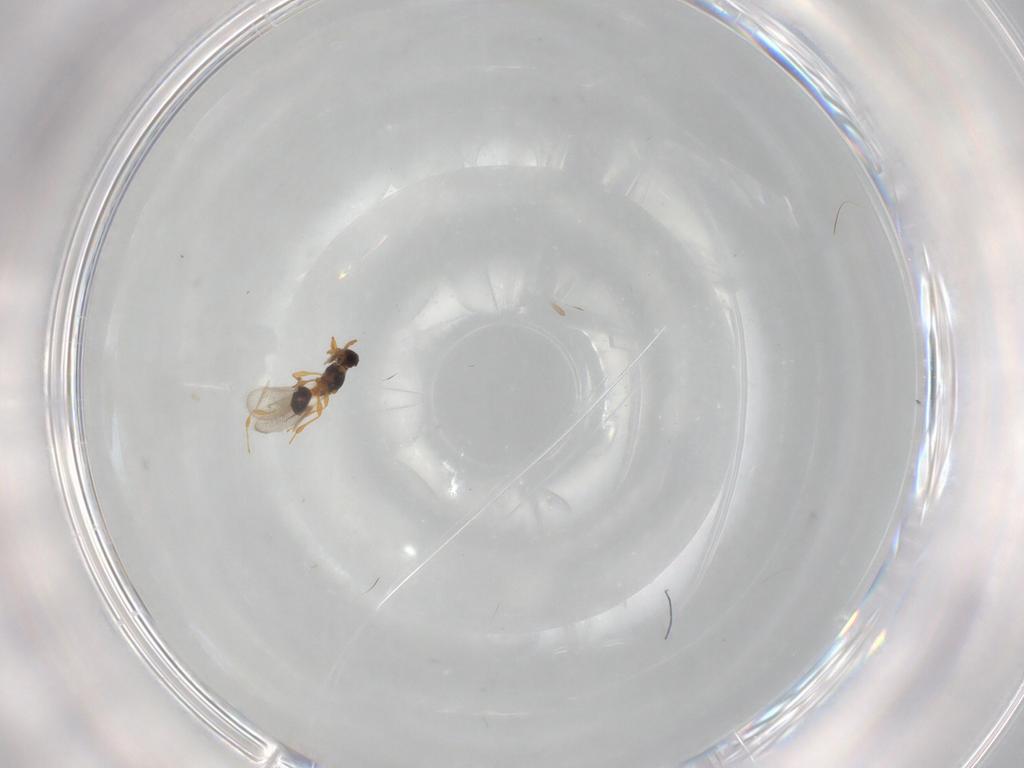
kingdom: Animalia
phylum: Arthropoda
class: Insecta
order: Hymenoptera
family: Platygastridae
